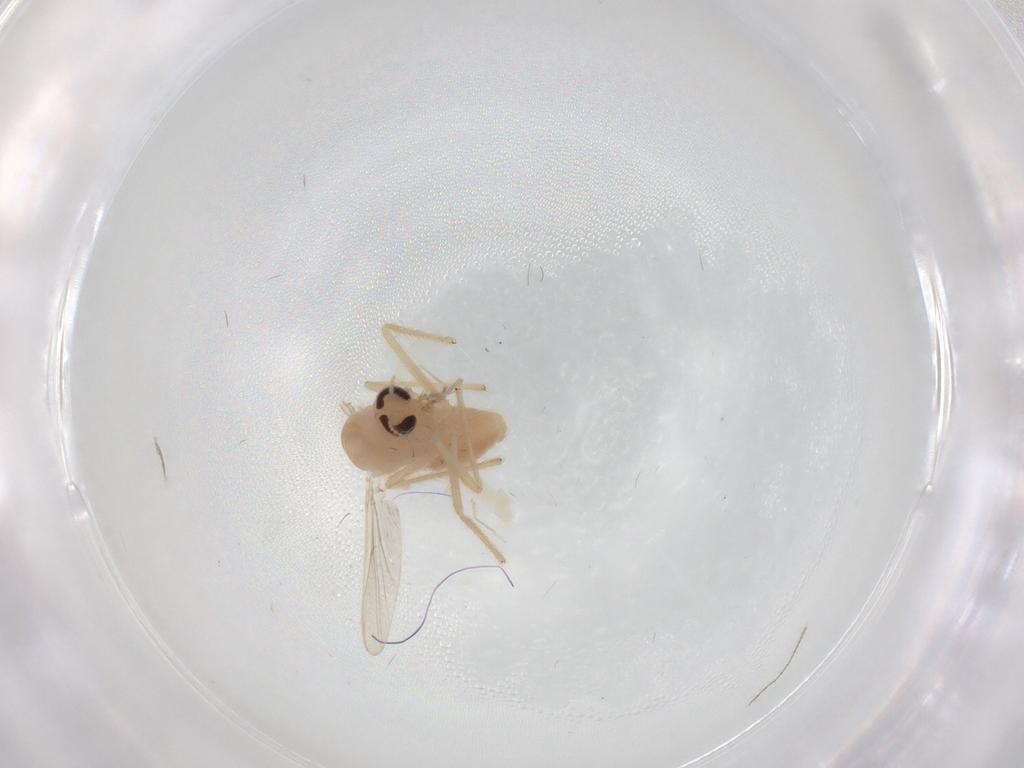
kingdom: Animalia
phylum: Arthropoda
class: Insecta
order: Diptera
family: Chironomidae
